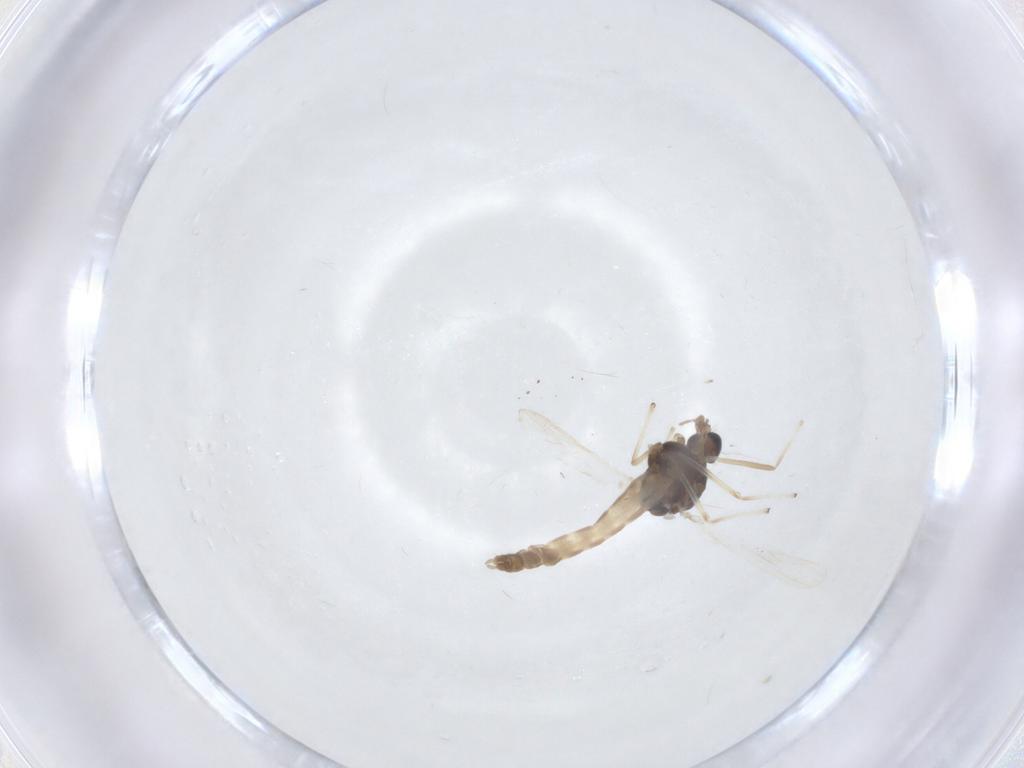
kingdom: Animalia
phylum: Arthropoda
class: Insecta
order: Diptera
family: Chironomidae
